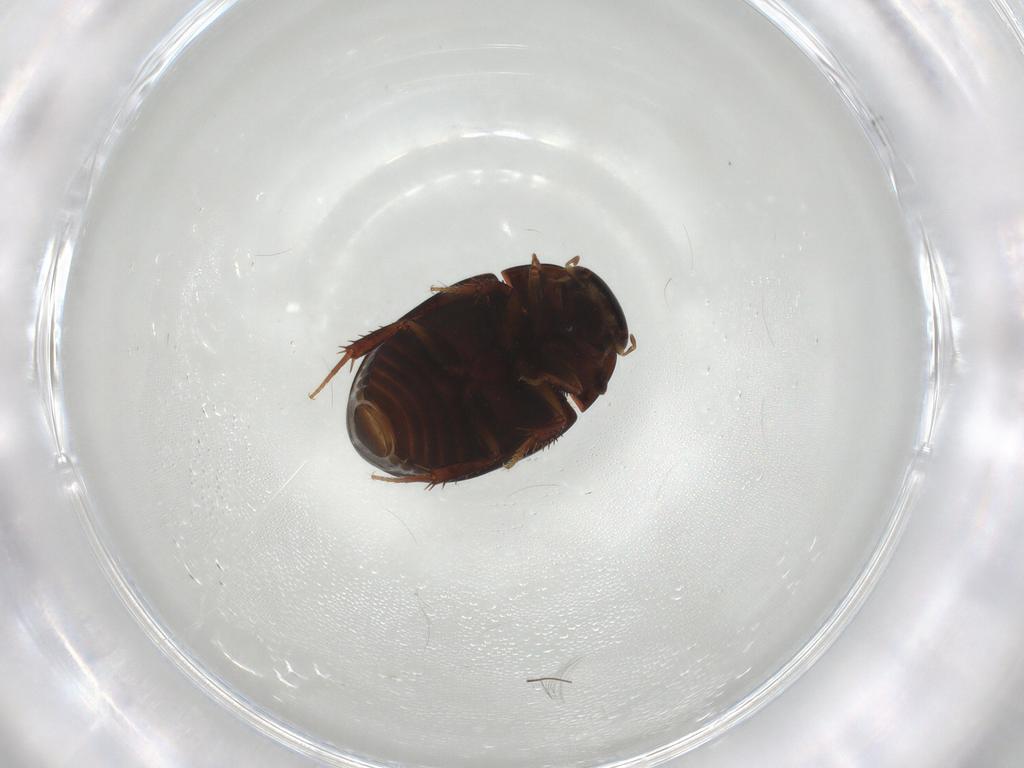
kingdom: Animalia
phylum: Arthropoda
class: Insecta
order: Coleoptera
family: Hydrophilidae
